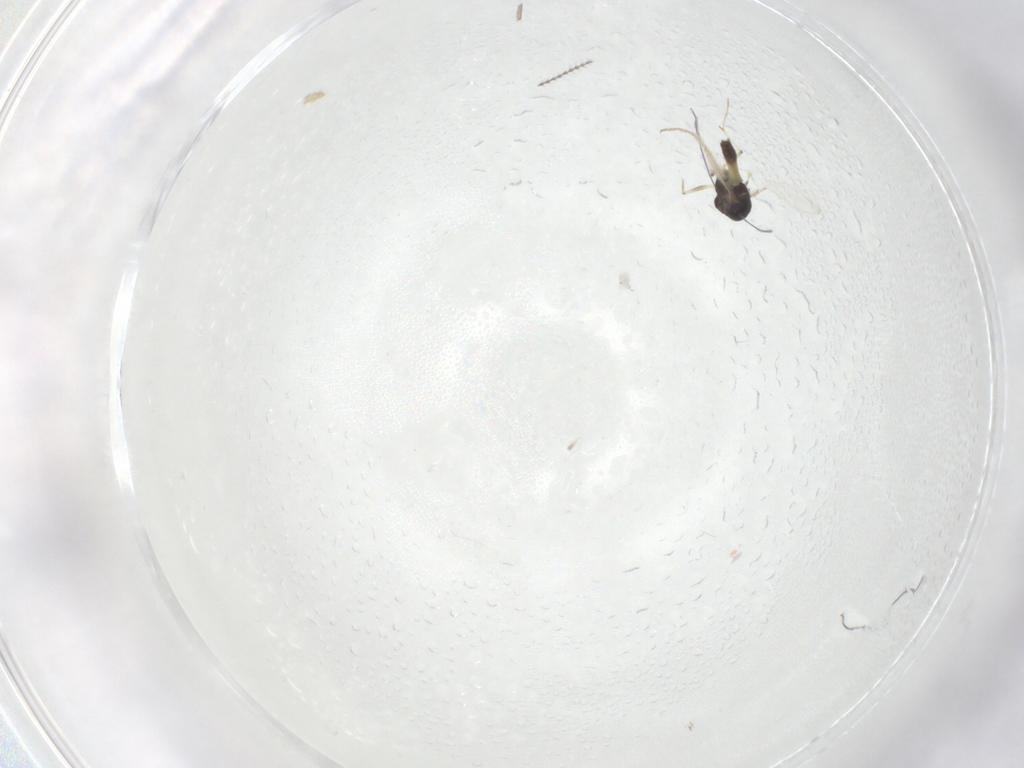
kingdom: Animalia
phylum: Arthropoda
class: Insecta
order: Diptera
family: Chironomidae
